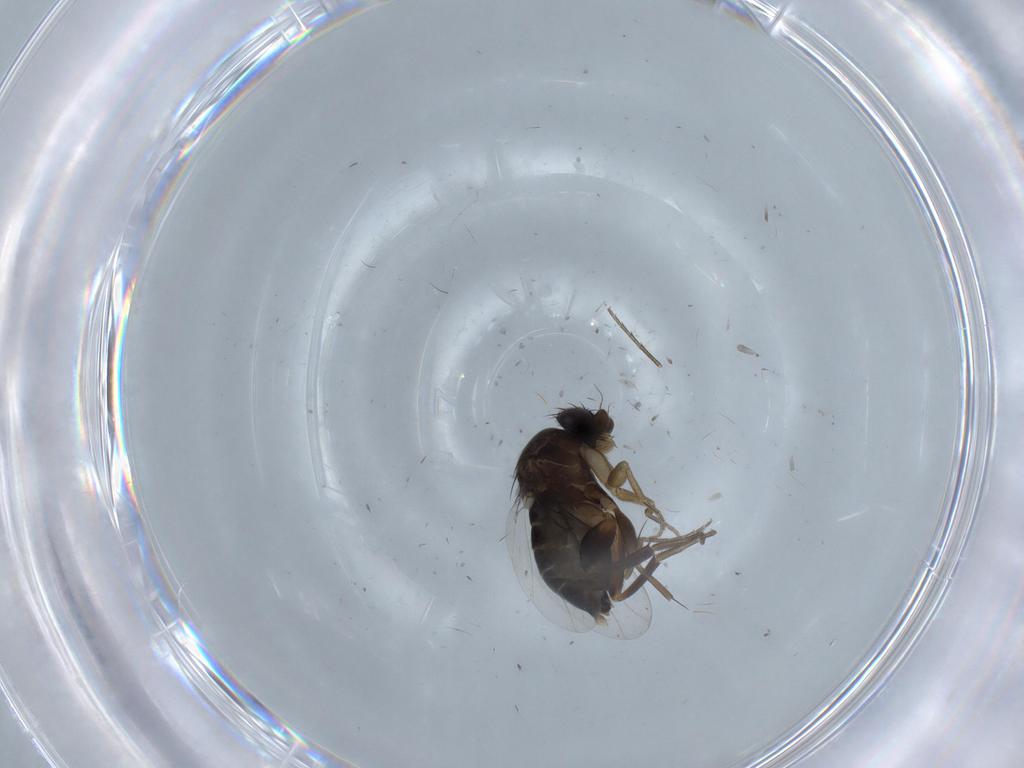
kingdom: Animalia
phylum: Arthropoda
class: Insecta
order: Diptera
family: Phoridae
